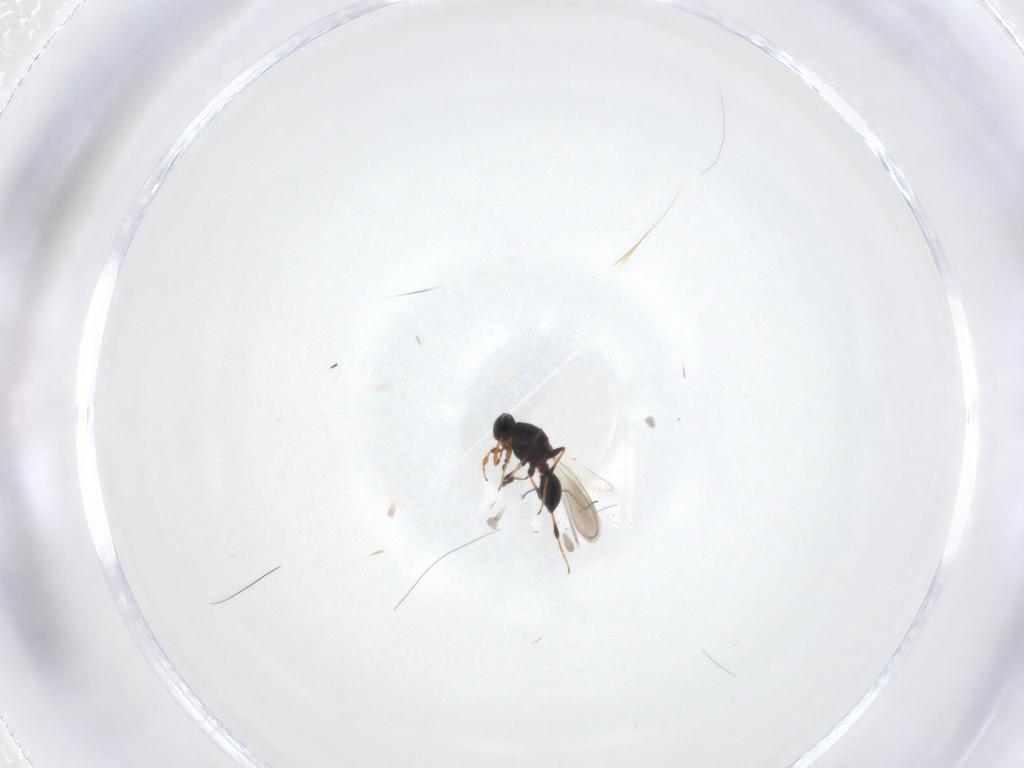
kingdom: Animalia
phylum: Arthropoda
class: Insecta
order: Hymenoptera
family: Platygastridae
